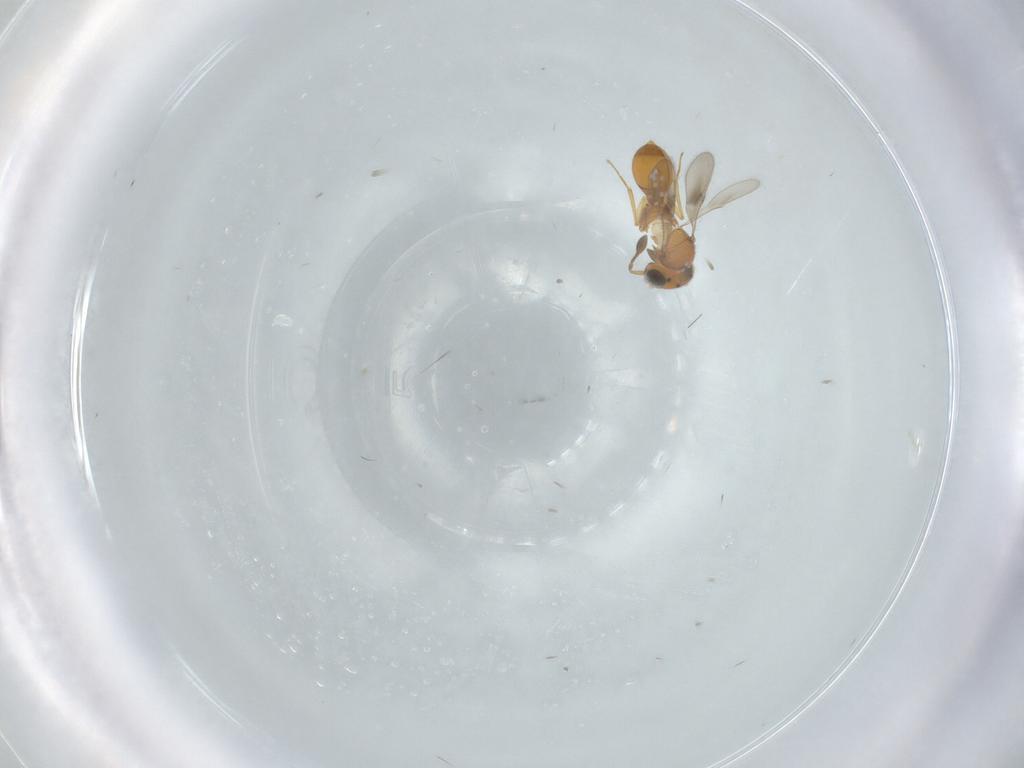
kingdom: Animalia
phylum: Arthropoda
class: Insecta
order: Hymenoptera
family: Scelionidae
